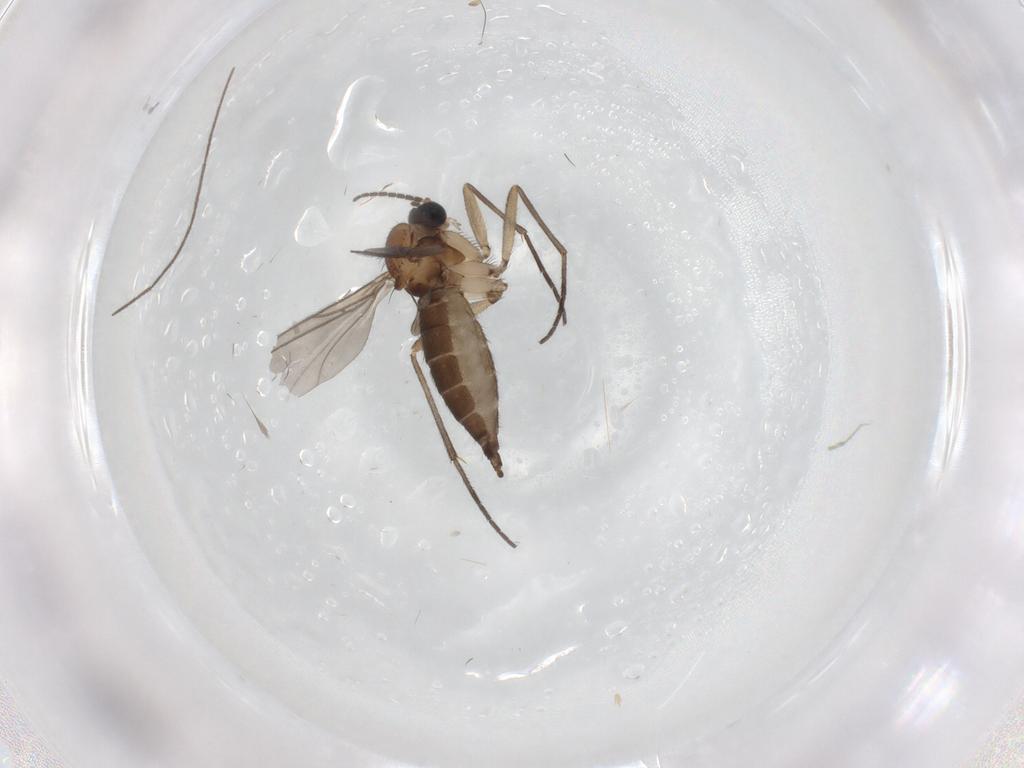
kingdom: Animalia
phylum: Arthropoda
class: Insecta
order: Diptera
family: Sciaridae
